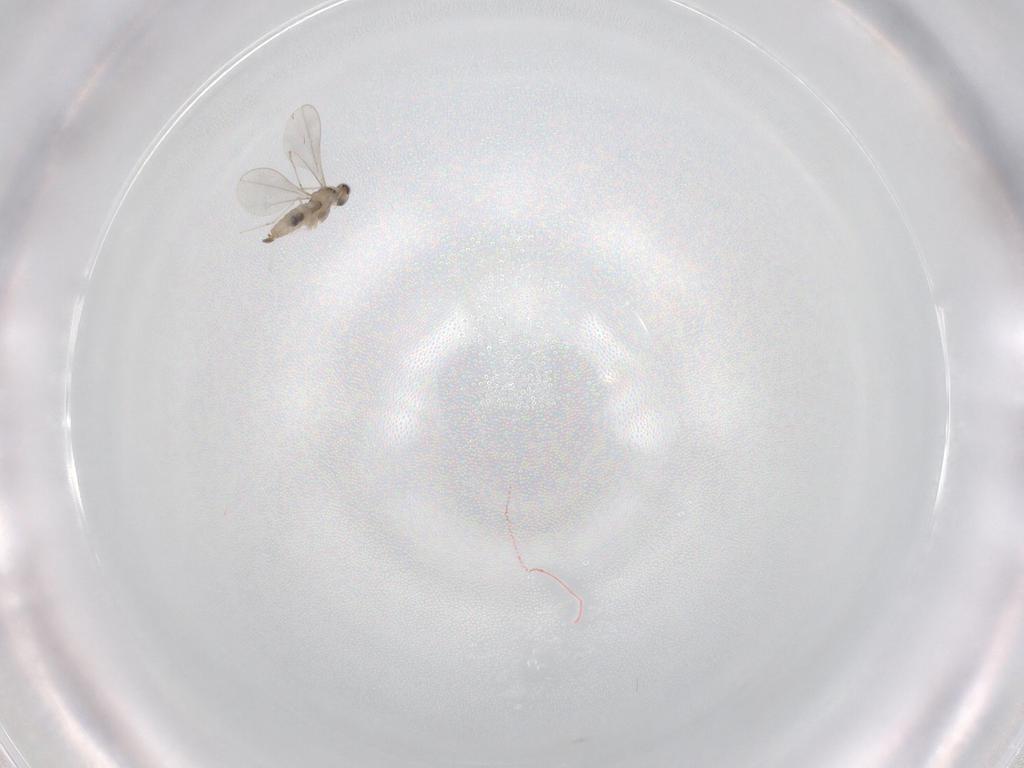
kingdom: Animalia
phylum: Arthropoda
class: Insecta
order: Diptera
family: Cecidomyiidae
